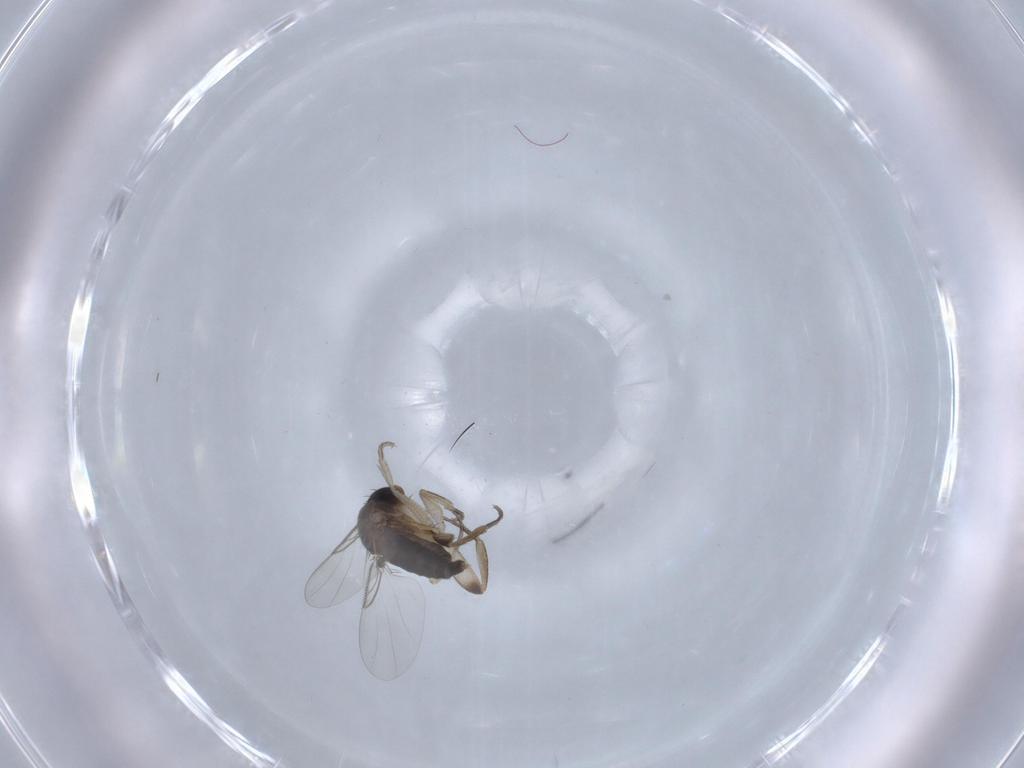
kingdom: Animalia
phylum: Arthropoda
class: Insecta
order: Diptera
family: Phoridae
